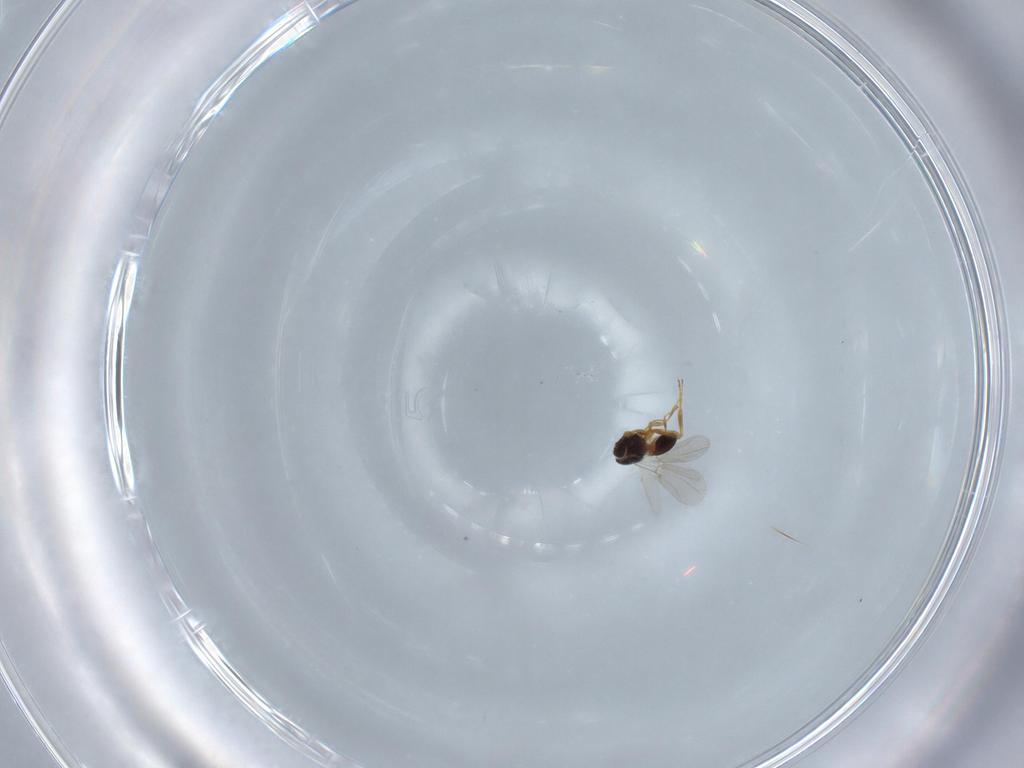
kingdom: Animalia
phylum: Arthropoda
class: Insecta
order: Hymenoptera
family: Platygastridae
